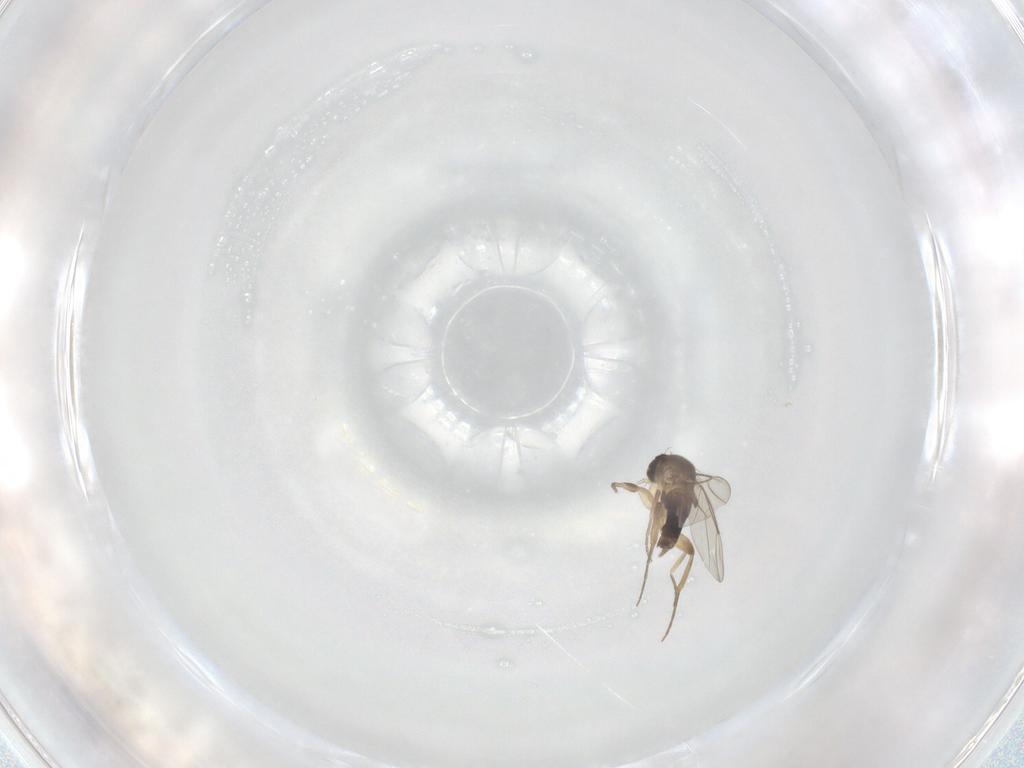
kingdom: Animalia
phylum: Arthropoda
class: Insecta
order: Diptera
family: Phoridae
